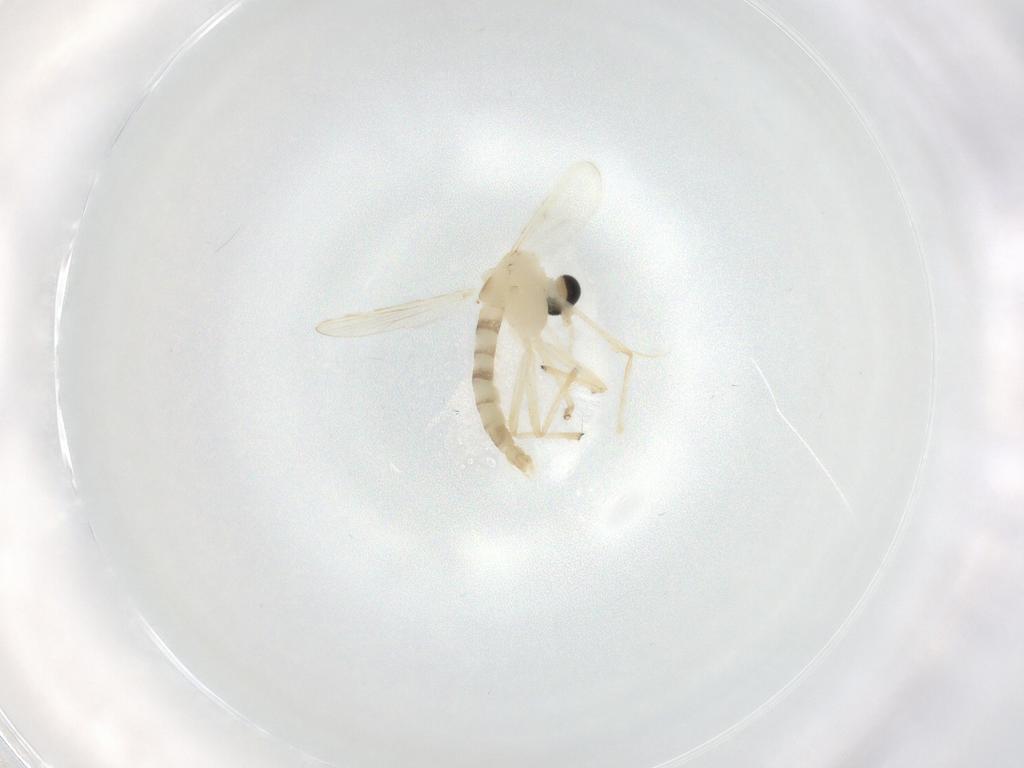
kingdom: Animalia
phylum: Arthropoda
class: Insecta
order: Diptera
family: Chironomidae
